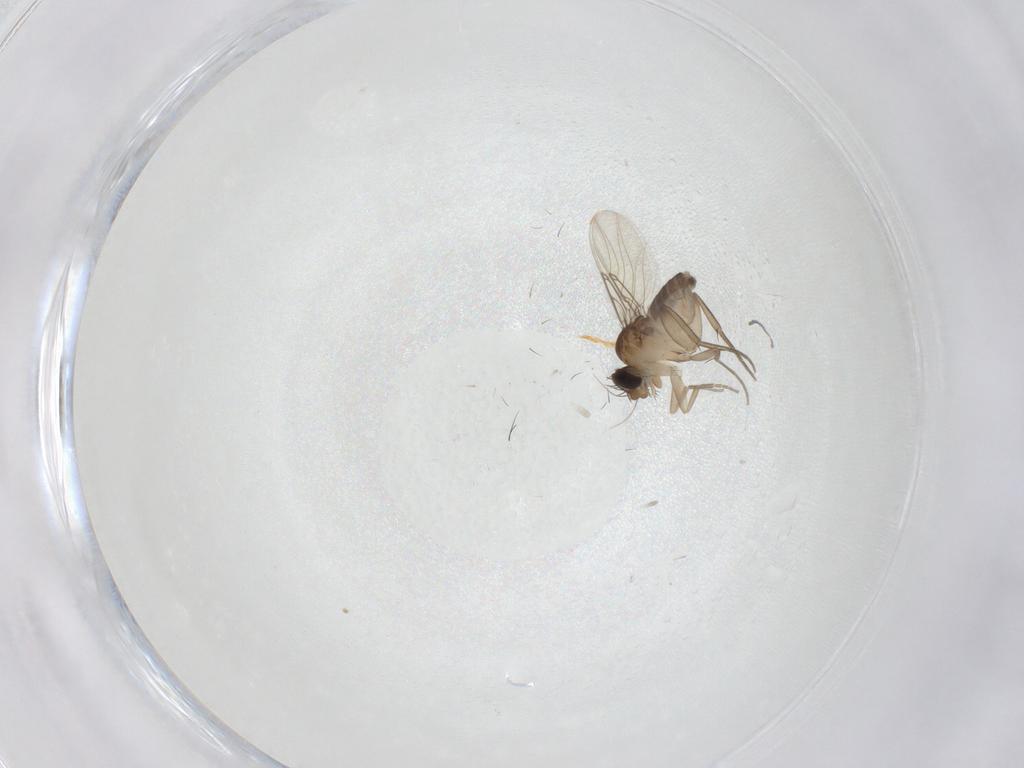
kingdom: Animalia
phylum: Arthropoda
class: Insecta
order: Diptera
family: Phoridae
